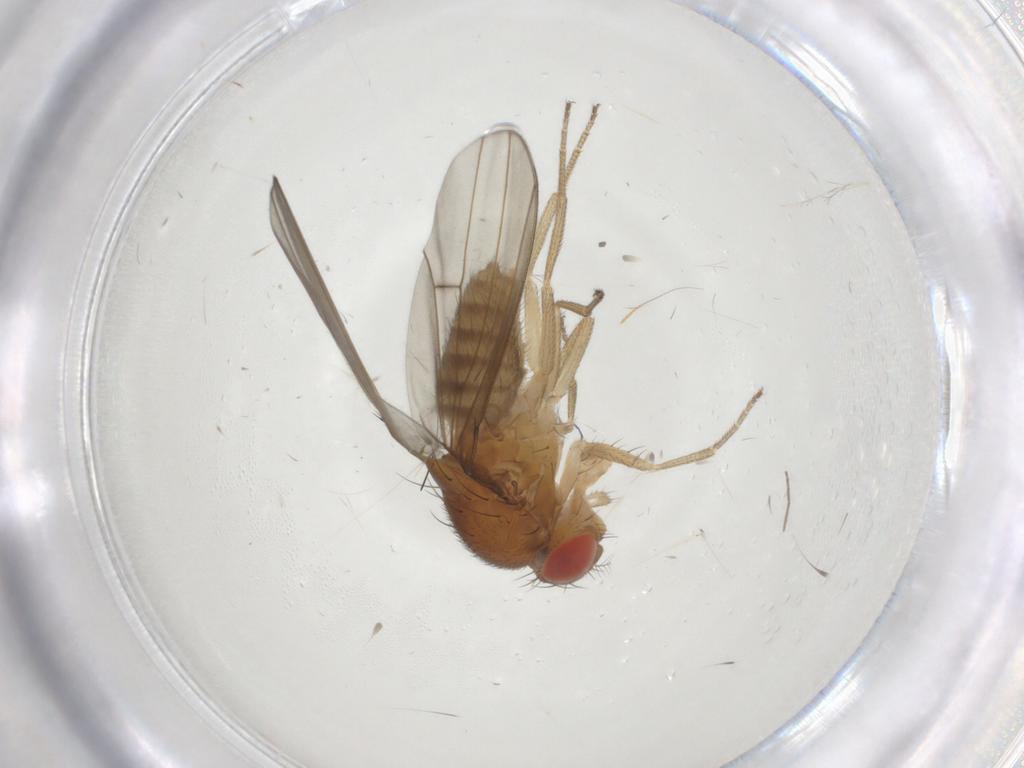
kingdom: Animalia
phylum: Arthropoda
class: Insecta
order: Diptera
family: Drosophilidae
